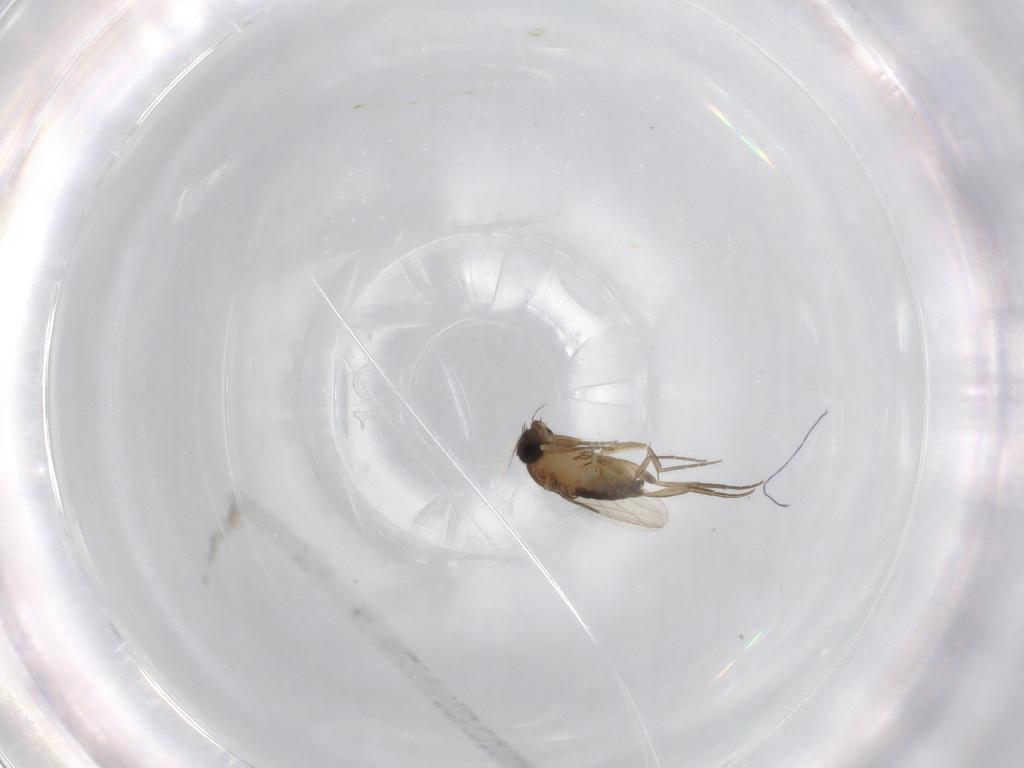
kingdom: Animalia
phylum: Arthropoda
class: Insecta
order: Diptera
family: Phoridae
